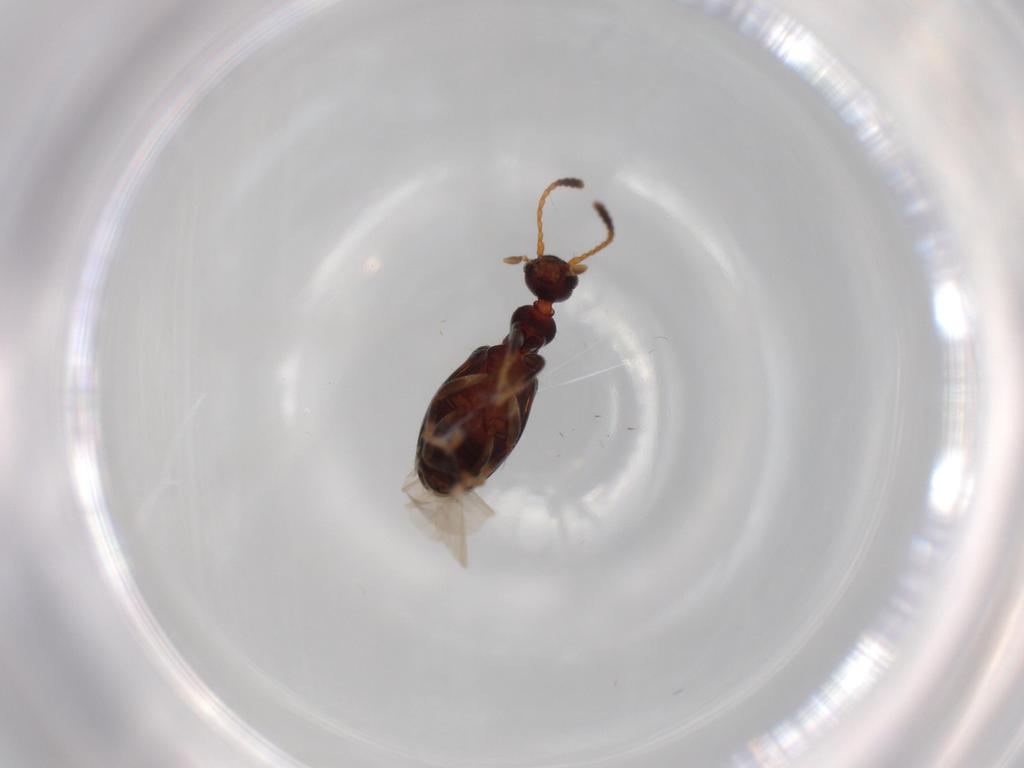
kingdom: Animalia
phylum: Arthropoda
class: Insecta
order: Coleoptera
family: Anthicidae
